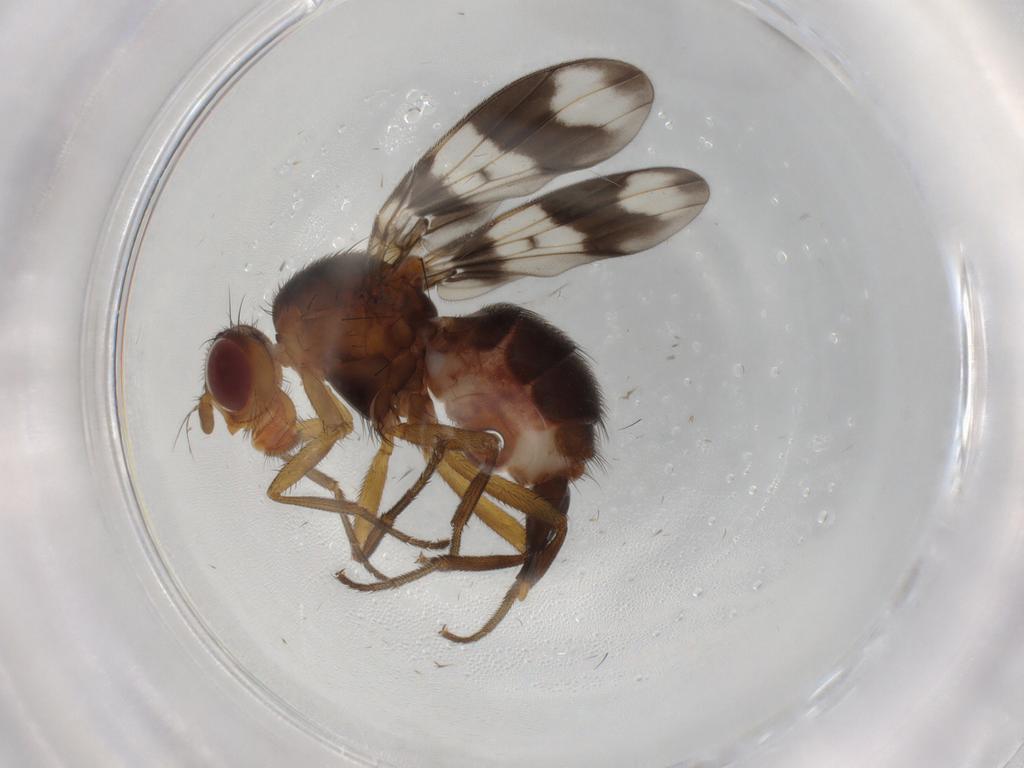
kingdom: Animalia
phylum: Arthropoda
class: Insecta
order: Diptera
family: Richardiidae
